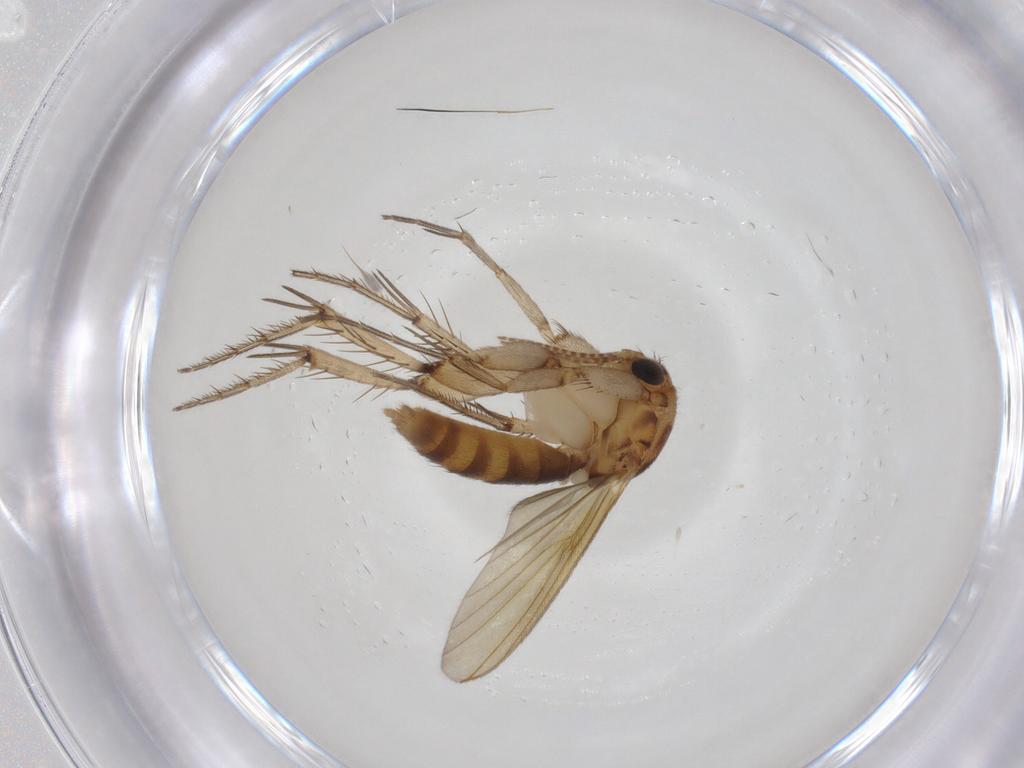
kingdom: Animalia
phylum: Arthropoda
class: Insecta
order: Diptera
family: Mycetophilidae
